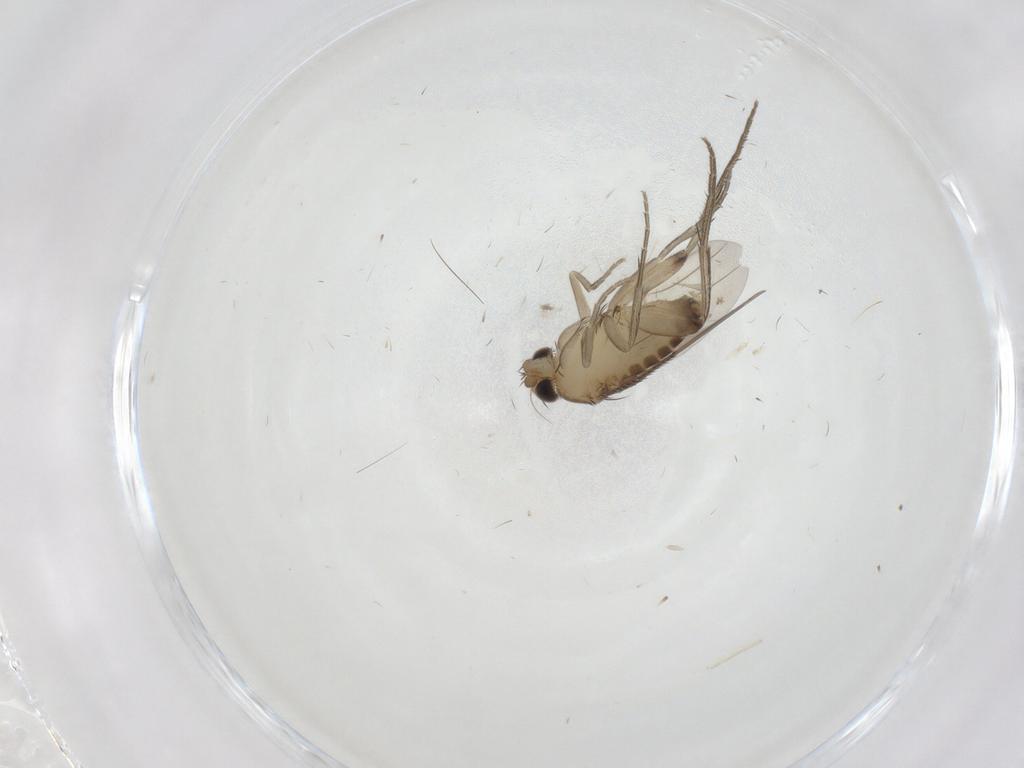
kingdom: Animalia
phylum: Arthropoda
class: Insecta
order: Diptera
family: Phoridae
